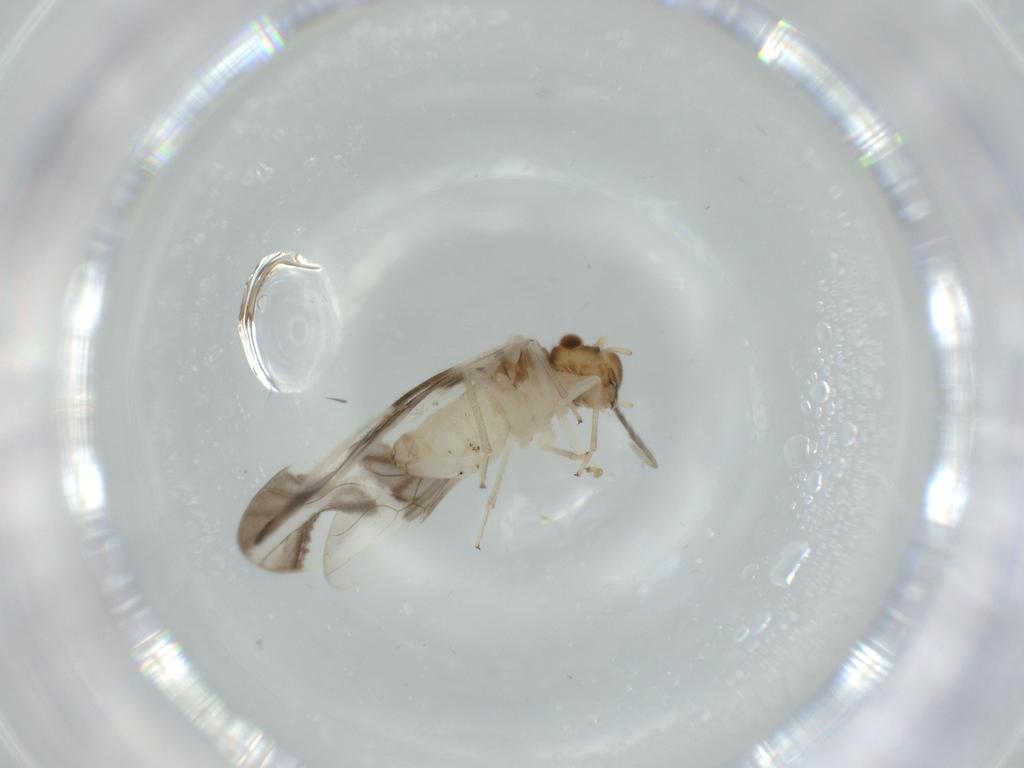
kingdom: Animalia
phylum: Arthropoda
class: Insecta
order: Psocodea
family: Caeciliusidae
